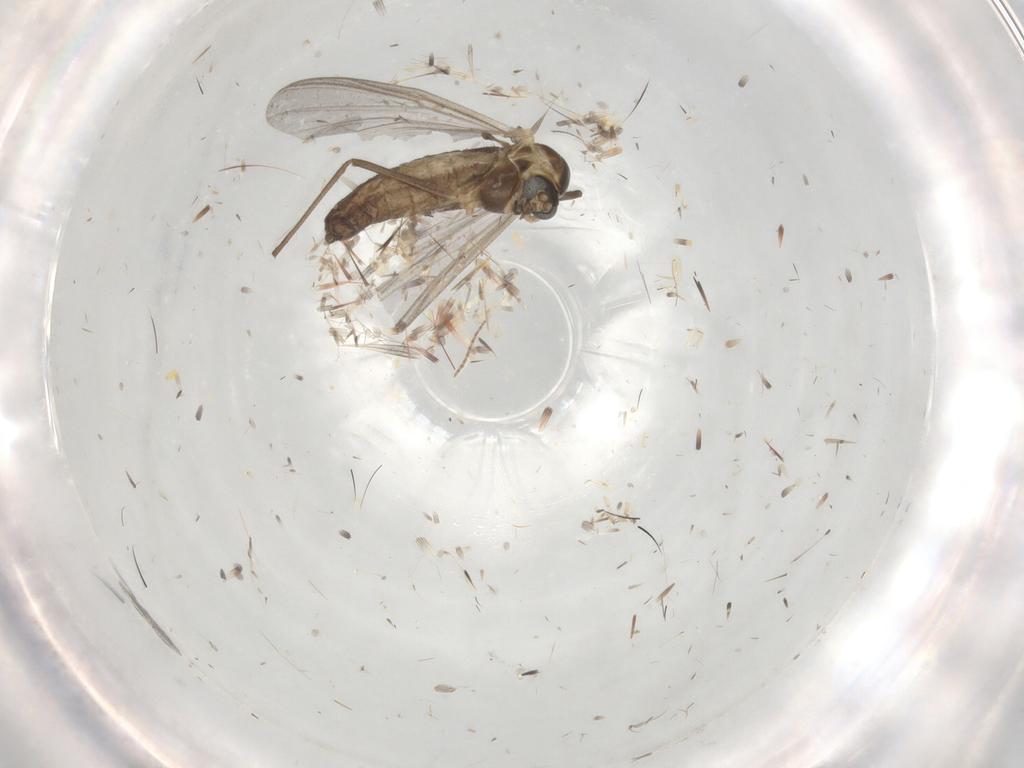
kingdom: Animalia
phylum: Arthropoda
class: Insecta
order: Diptera
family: Chironomidae
